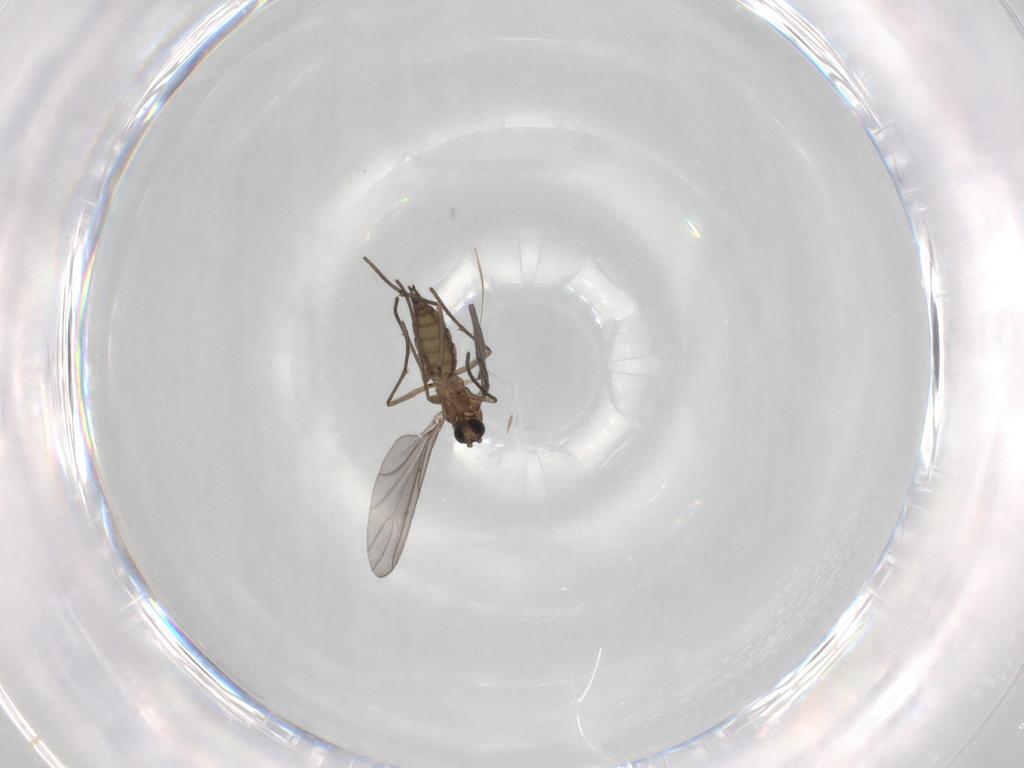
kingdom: Animalia
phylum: Arthropoda
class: Insecta
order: Diptera
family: Sciaridae
